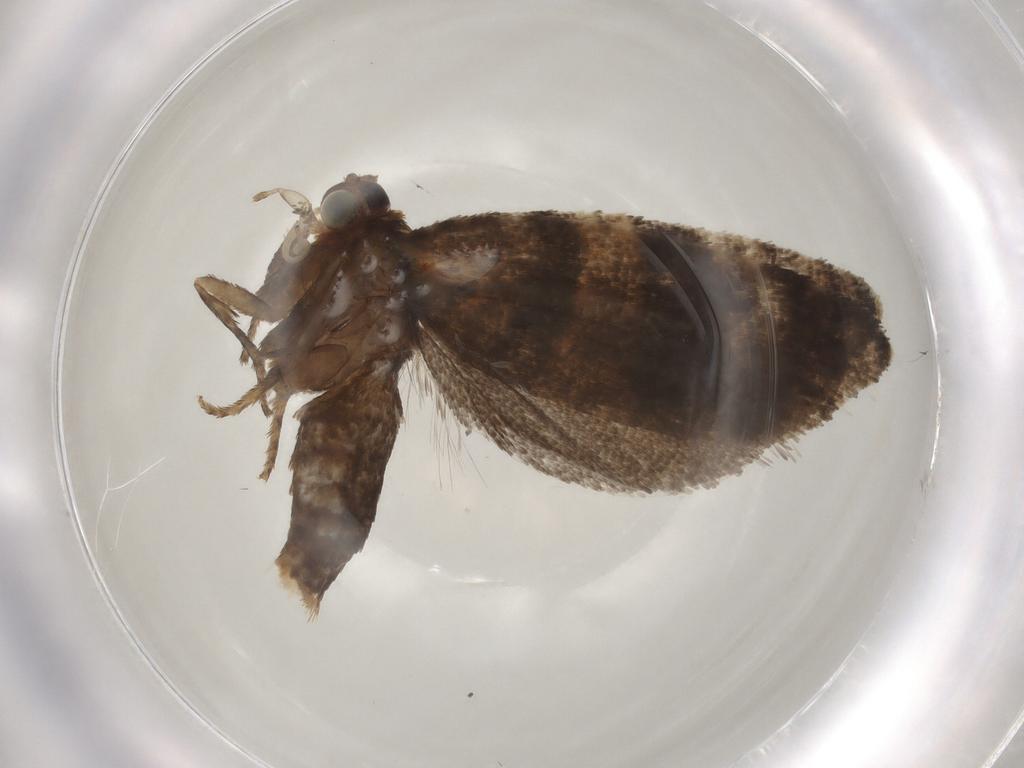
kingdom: Animalia
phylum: Arthropoda
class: Insecta
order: Lepidoptera
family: Tortricidae
